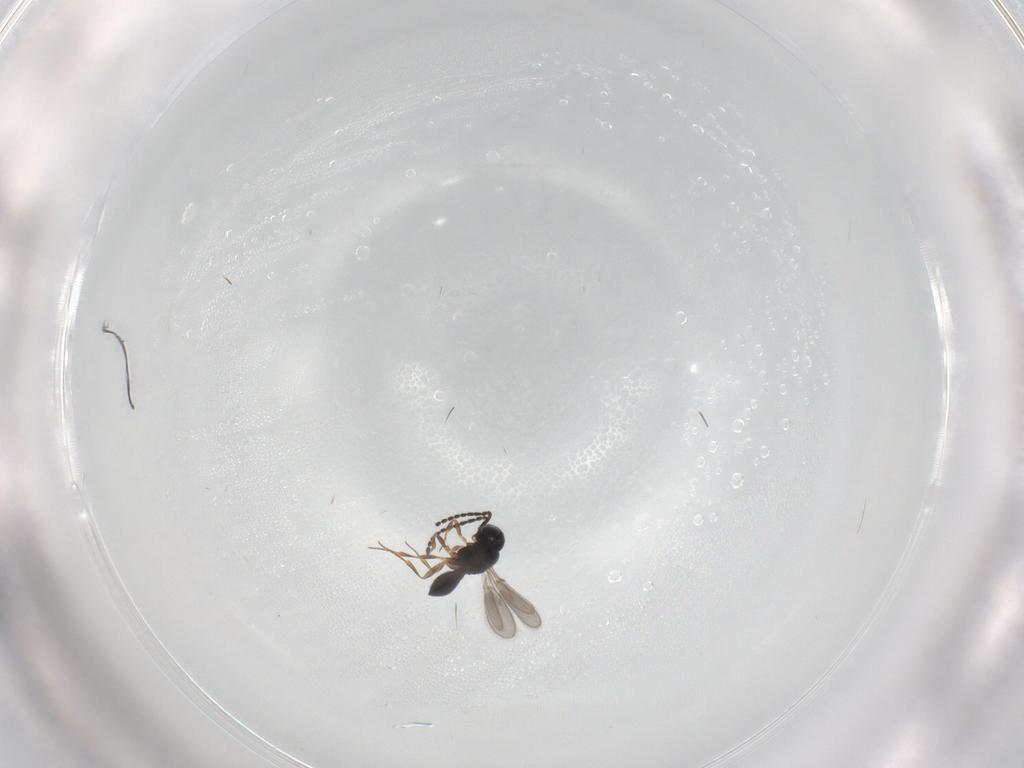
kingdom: Animalia
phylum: Arthropoda
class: Insecta
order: Hymenoptera
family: Scelionidae
